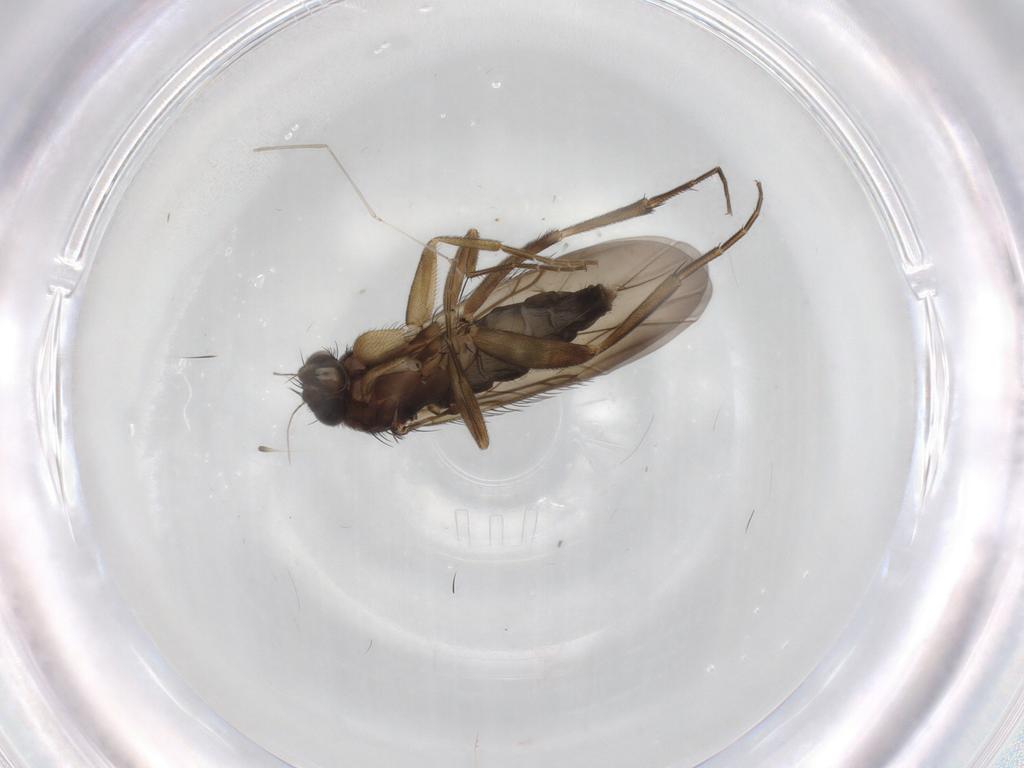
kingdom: Animalia
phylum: Arthropoda
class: Insecta
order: Diptera
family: Phoridae
